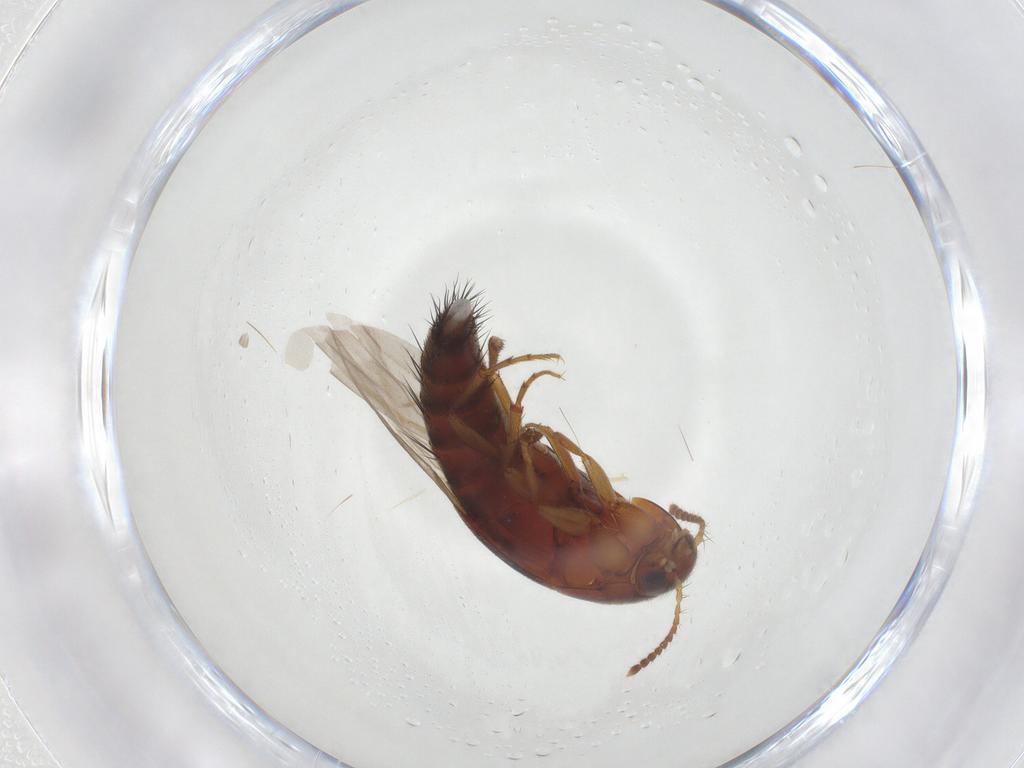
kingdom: Animalia
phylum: Arthropoda
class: Insecta
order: Coleoptera
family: Staphylinidae
